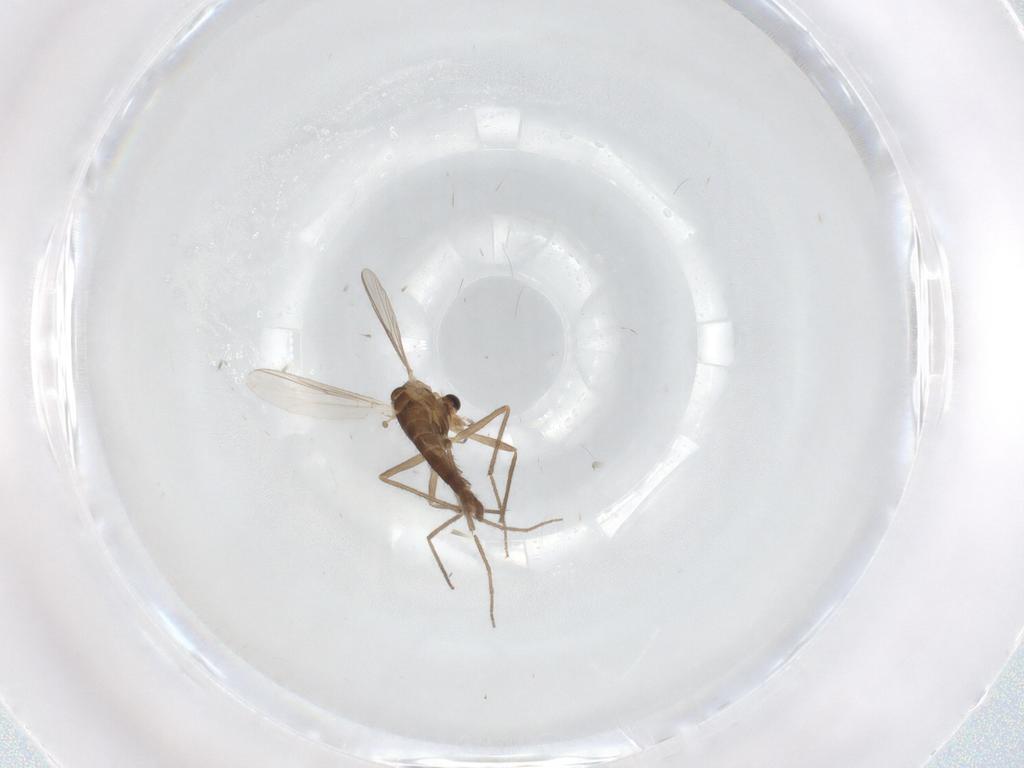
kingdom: Animalia
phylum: Arthropoda
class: Insecta
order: Diptera
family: Chironomidae
